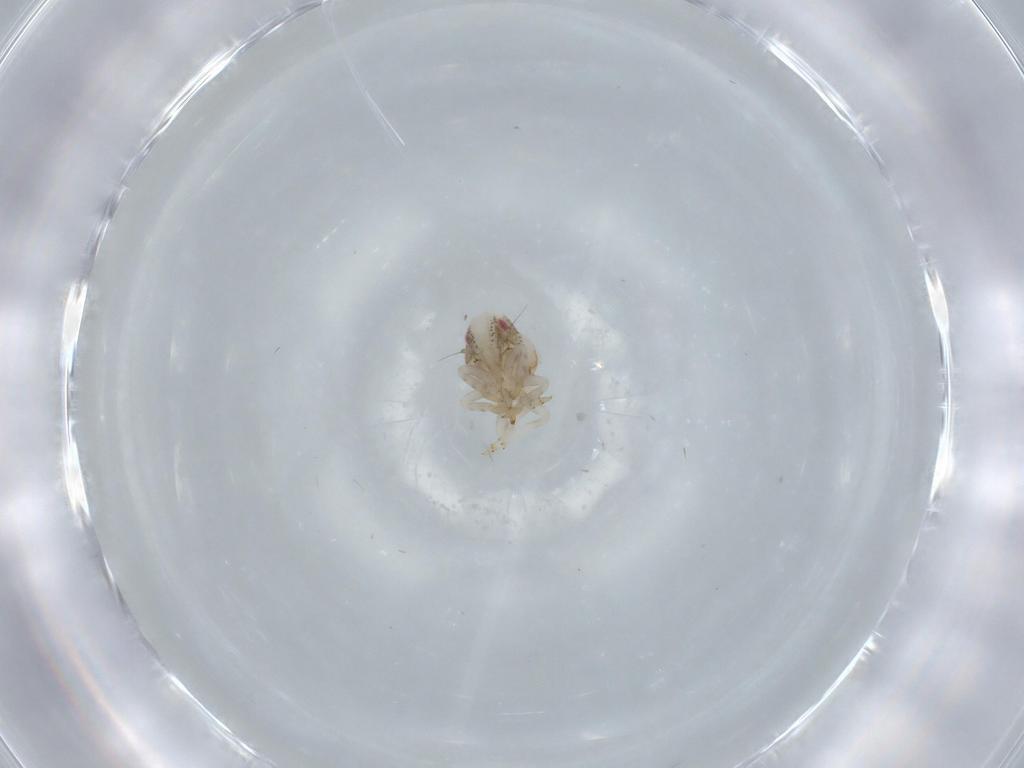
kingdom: Animalia
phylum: Arthropoda
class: Insecta
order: Hemiptera
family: Acanaloniidae
